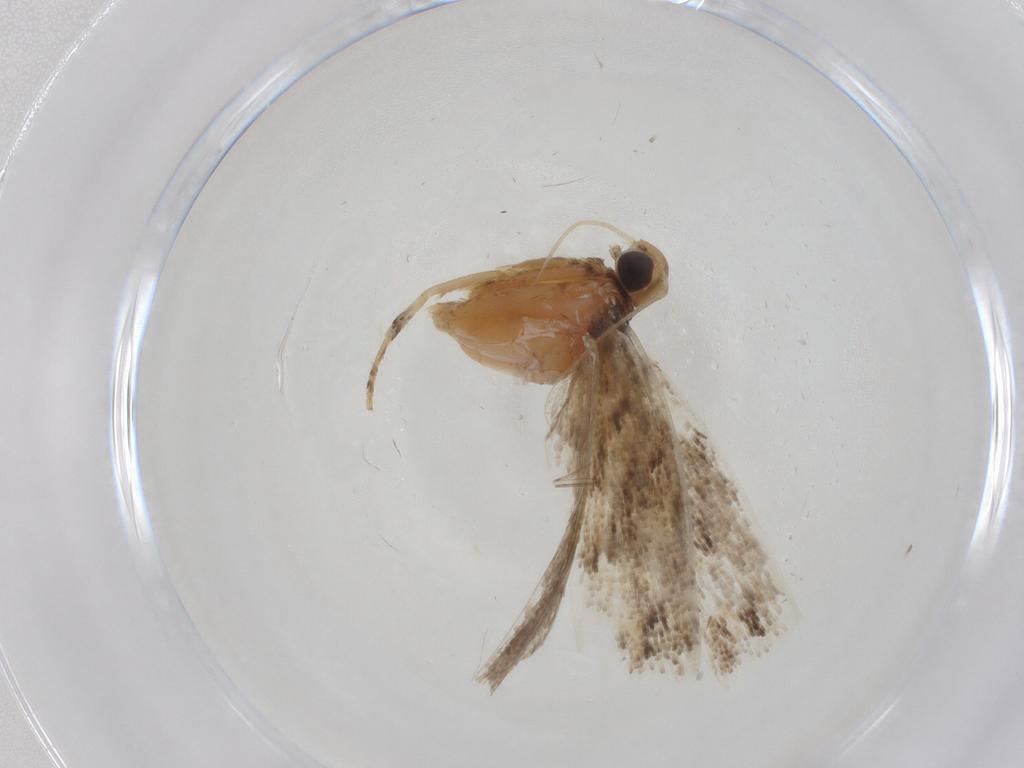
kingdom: Animalia
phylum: Arthropoda
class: Insecta
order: Lepidoptera
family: Gelechiidae
